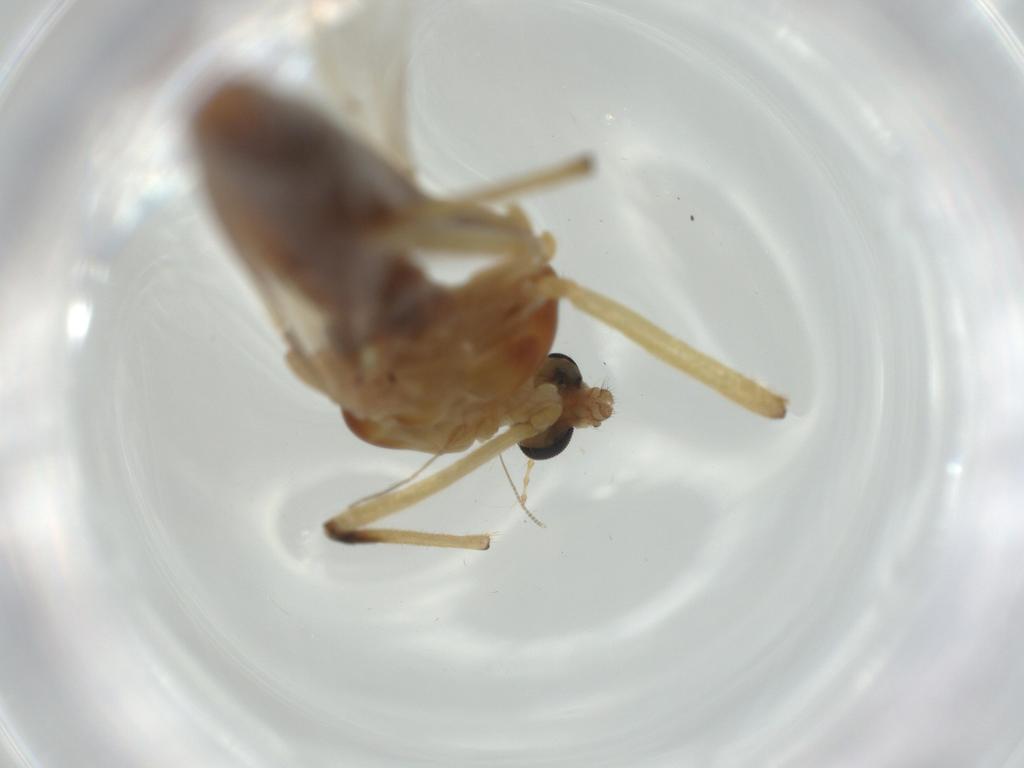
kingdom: Animalia
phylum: Arthropoda
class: Insecta
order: Diptera
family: Chironomidae
